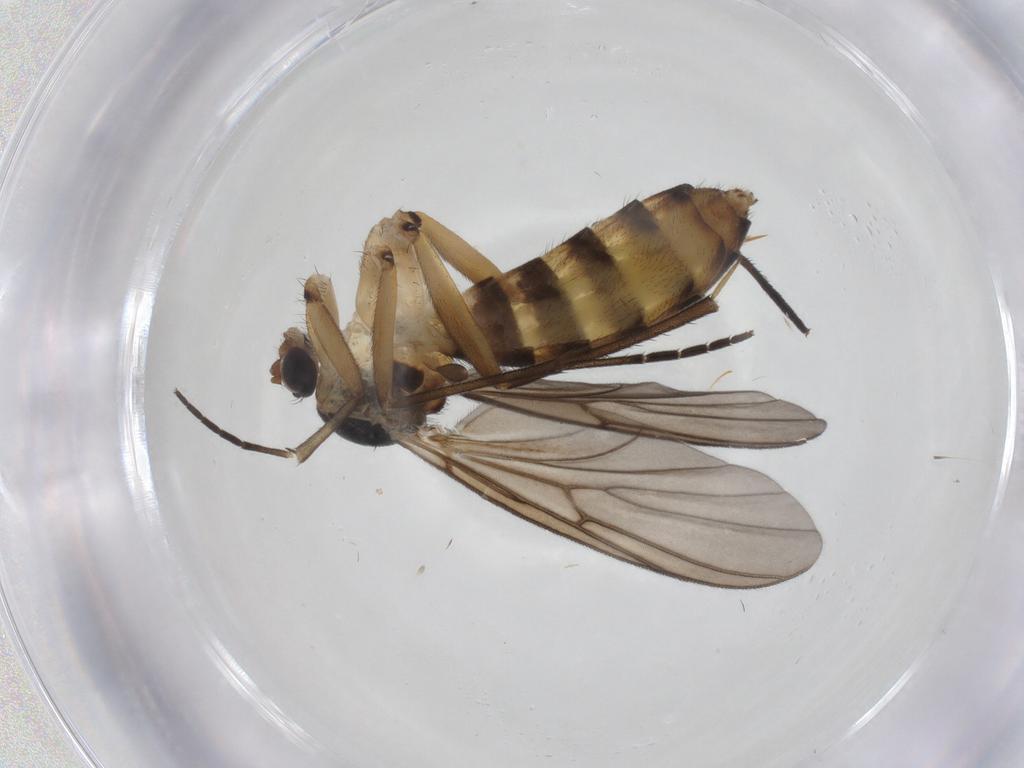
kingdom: Animalia
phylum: Arthropoda
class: Insecta
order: Diptera
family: Mycetophilidae
